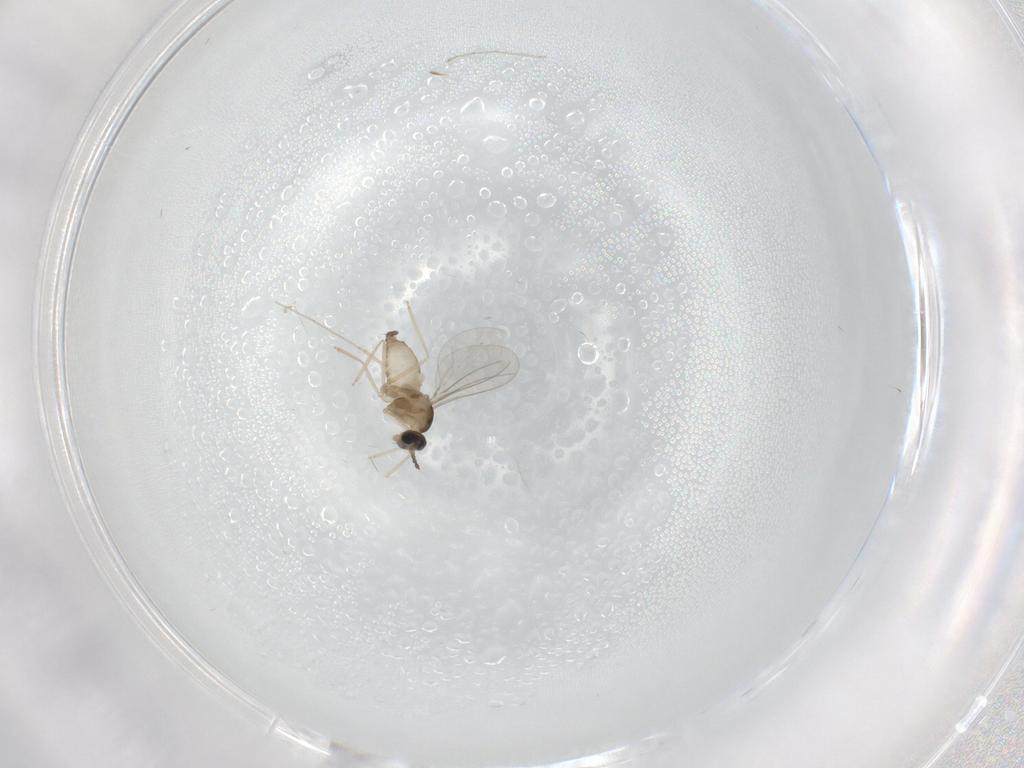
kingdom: Animalia
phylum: Arthropoda
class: Insecta
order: Diptera
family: Cecidomyiidae
